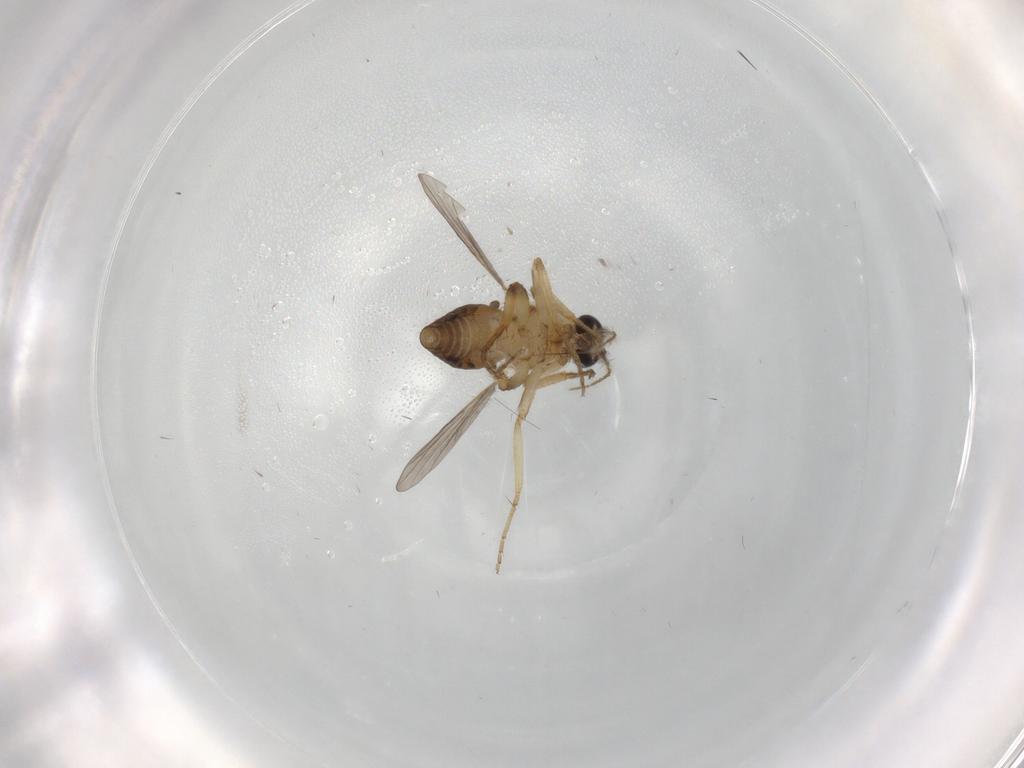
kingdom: Animalia
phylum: Arthropoda
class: Insecta
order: Diptera
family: Ceratopogonidae
